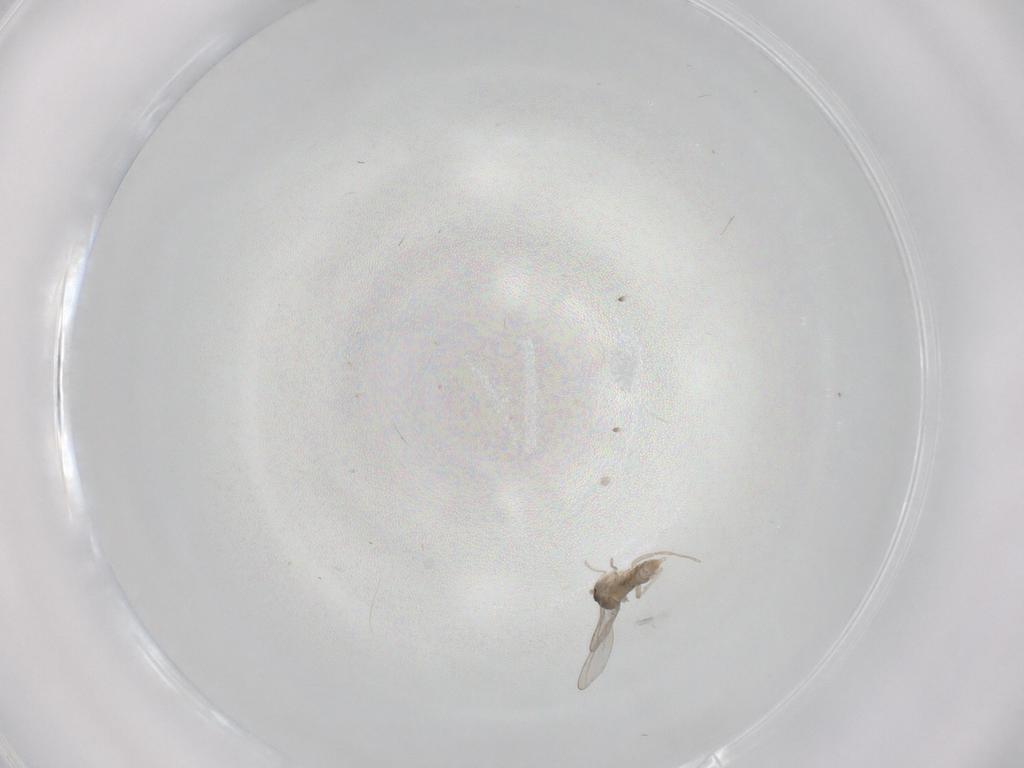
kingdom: Animalia
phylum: Arthropoda
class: Insecta
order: Diptera
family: Cecidomyiidae
